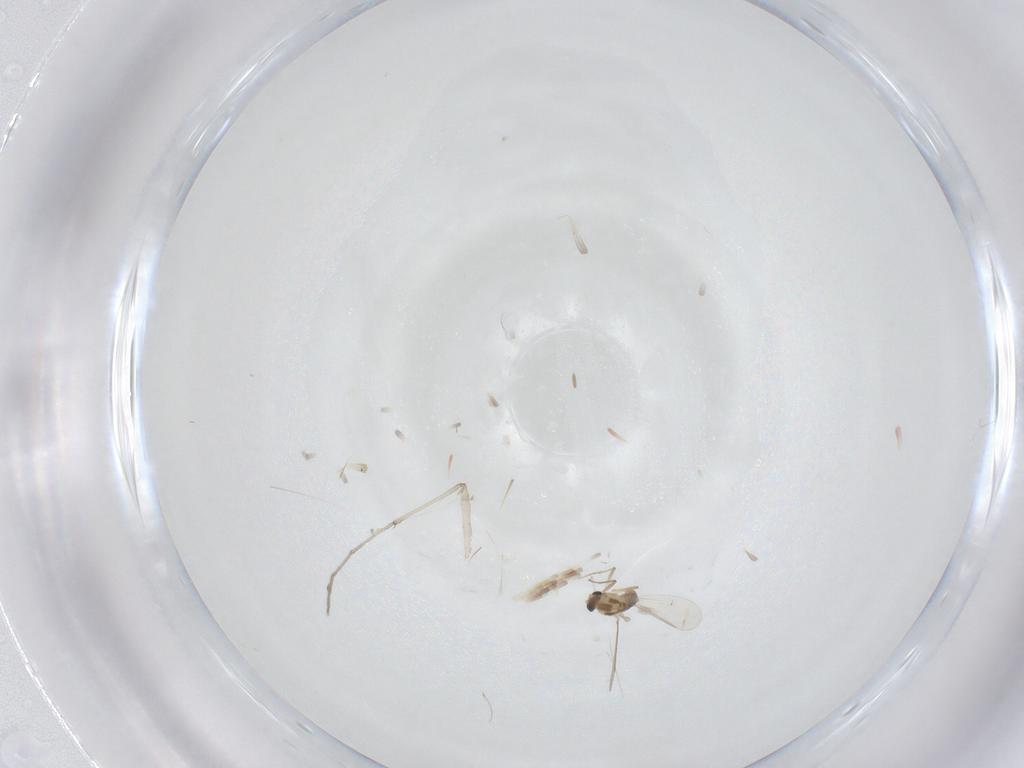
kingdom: Animalia
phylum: Arthropoda
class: Insecta
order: Diptera
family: Chironomidae
